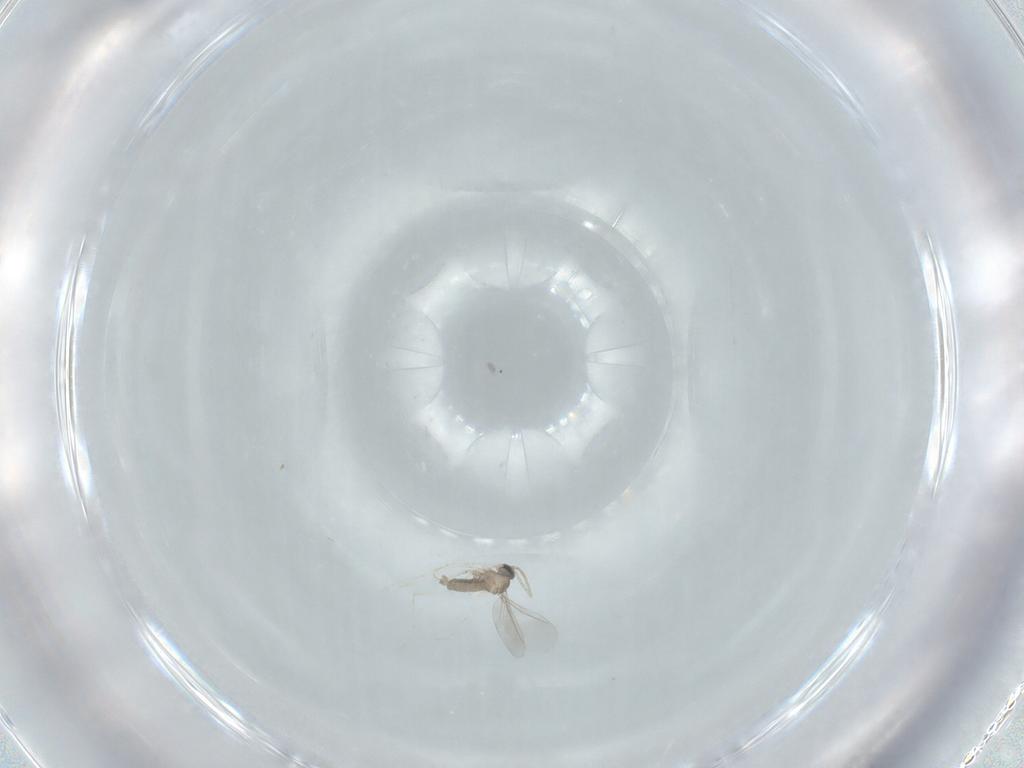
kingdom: Animalia
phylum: Arthropoda
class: Insecta
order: Diptera
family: Cecidomyiidae
